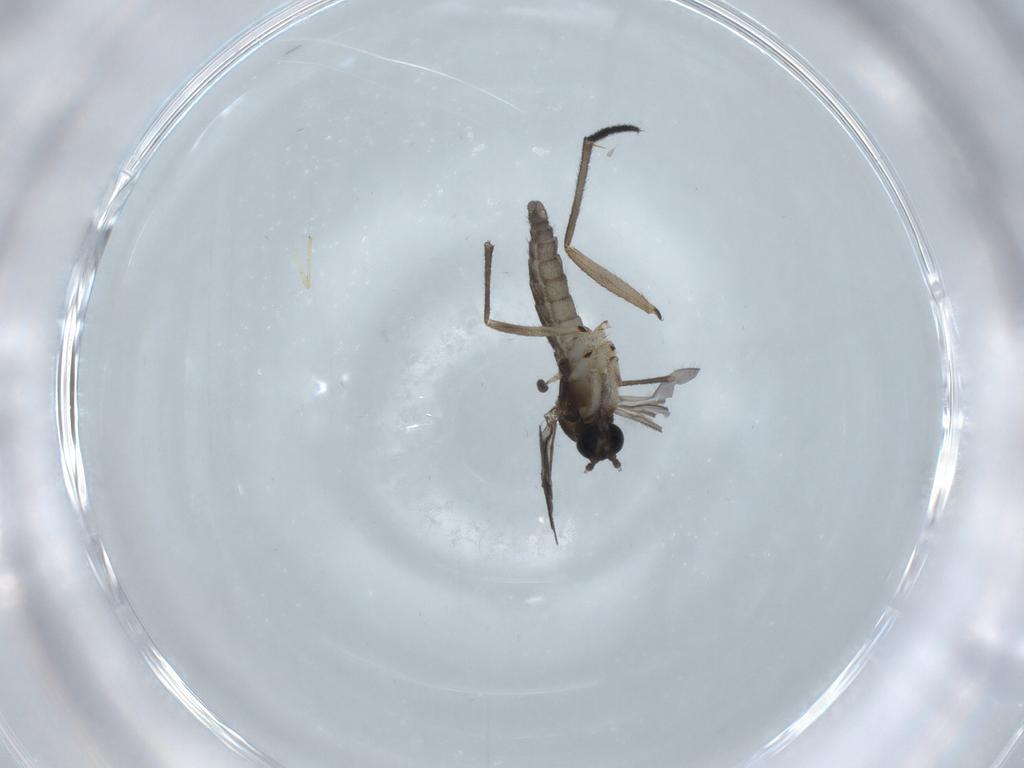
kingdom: Animalia
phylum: Arthropoda
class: Insecta
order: Diptera
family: Sciaridae
